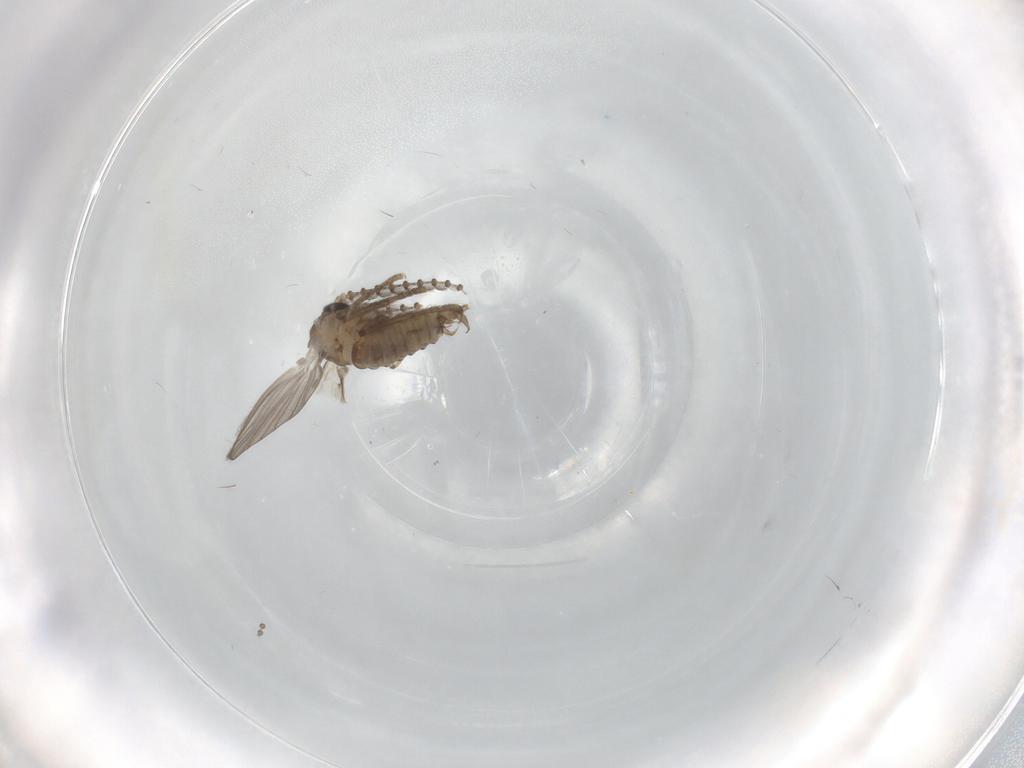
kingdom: Animalia
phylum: Arthropoda
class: Insecta
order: Diptera
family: Psychodidae
